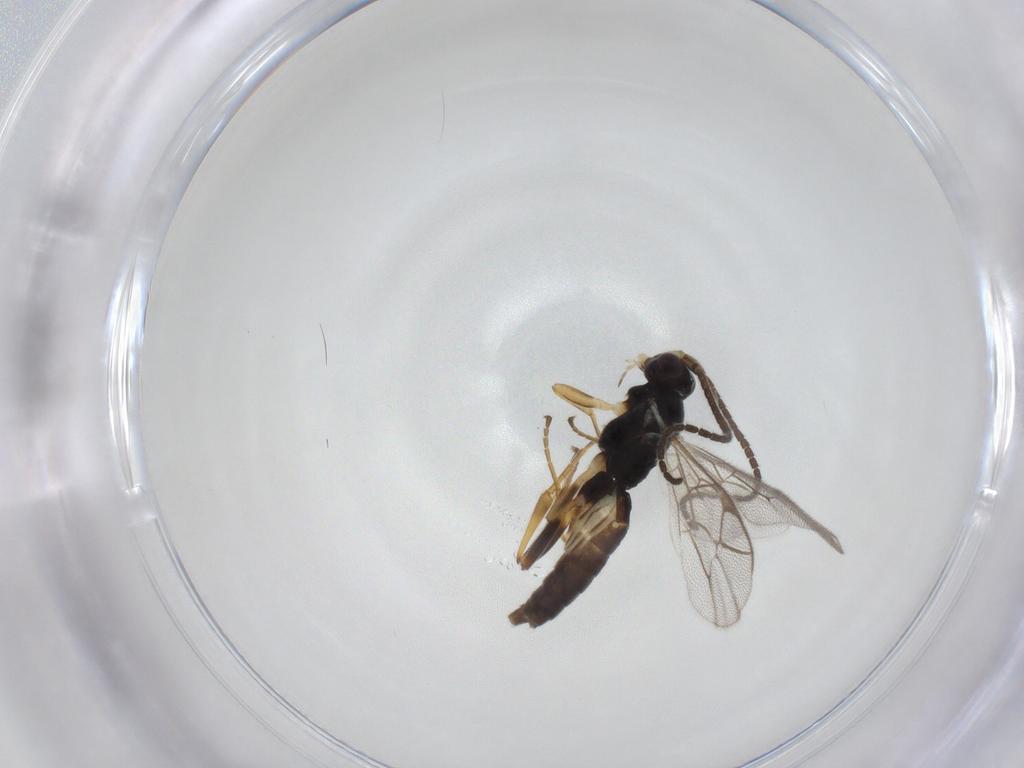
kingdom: Animalia
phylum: Arthropoda
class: Insecta
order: Hymenoptera
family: Ichneumonidae
